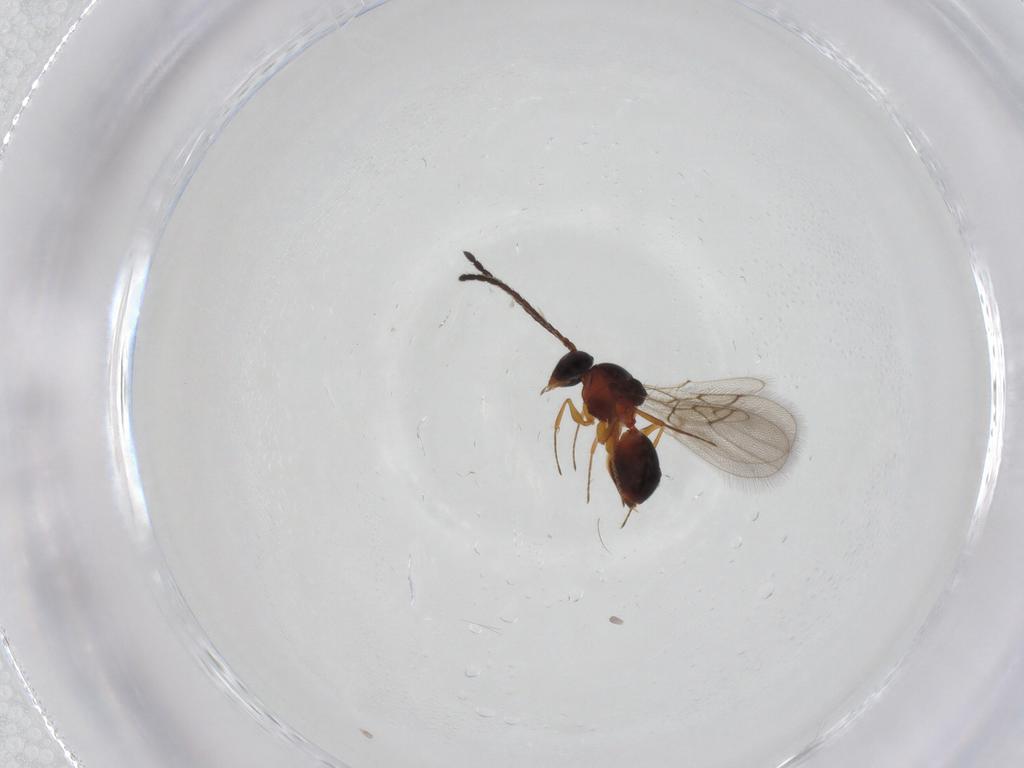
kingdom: Animalia
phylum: Arthropoda
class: Insecta
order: Hymenoptera
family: Figitidae
